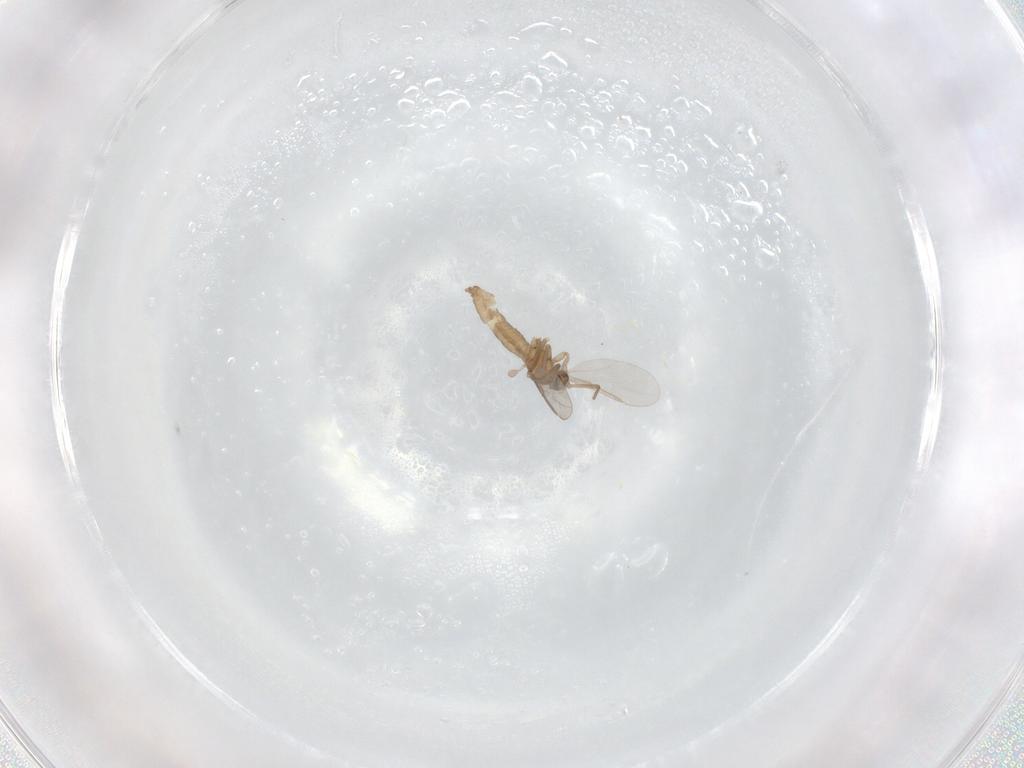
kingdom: Animalia
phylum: Arthropoda
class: Insecta
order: Diptera
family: Cecidomyiidae
